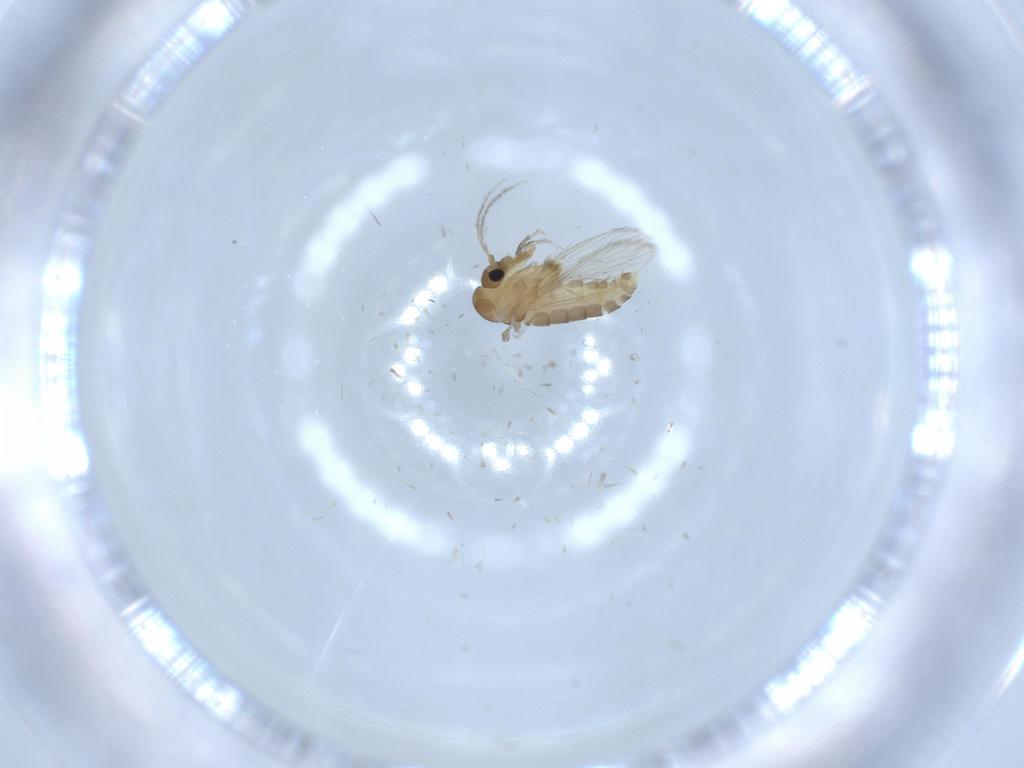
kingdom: Animalia
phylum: Arthropoda
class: Insecta
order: Diptera
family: Psychodidae
